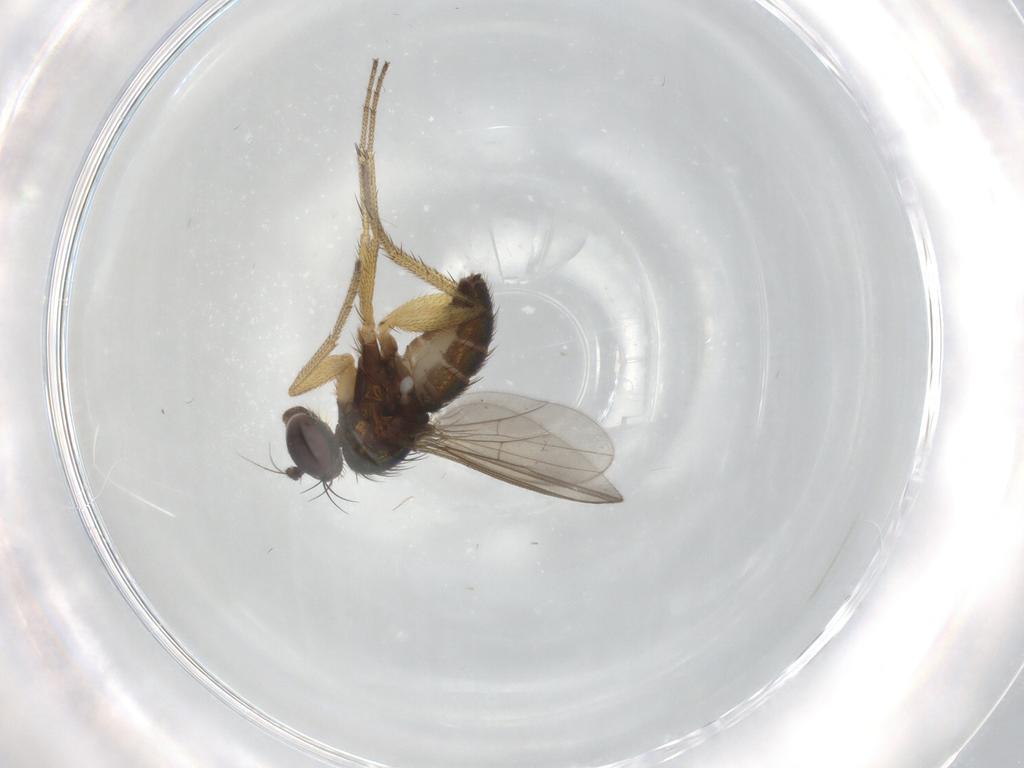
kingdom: Animalia
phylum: Arthropoda
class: Insecta
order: Diptera
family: Dolichopodidae
